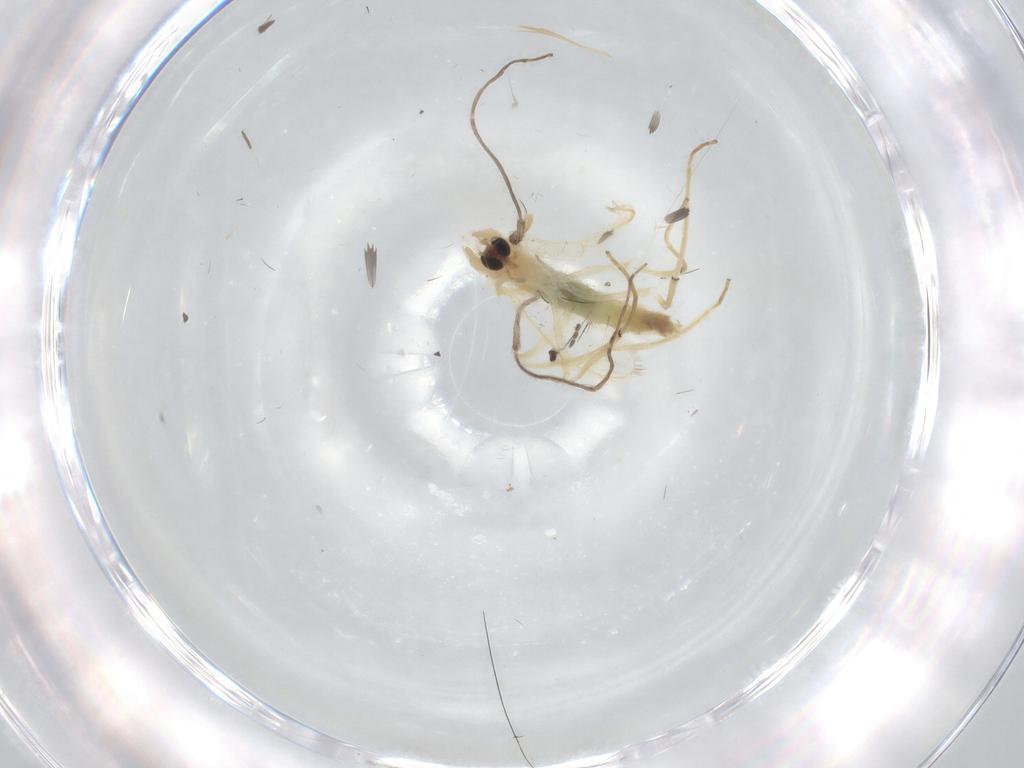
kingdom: Animalia
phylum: Arthropoda
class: Insecta
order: Diptera
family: Chironomidae
